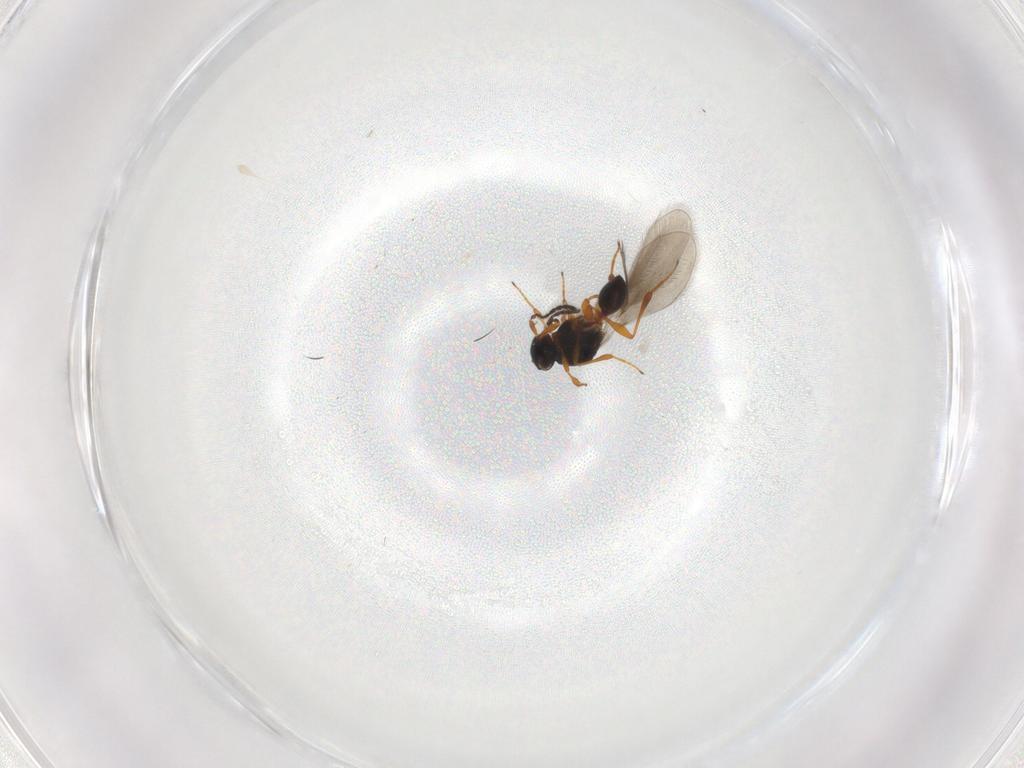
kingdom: Animalia
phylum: Arthropoda
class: Insecta
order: Hymenoptera
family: Platygastridae
